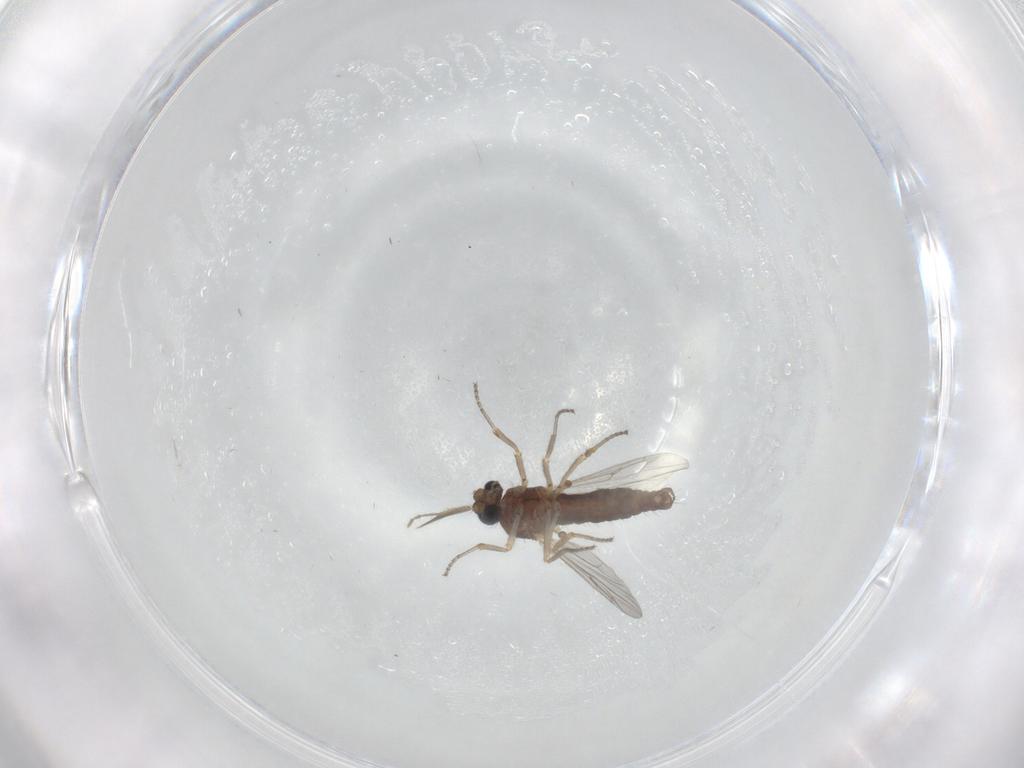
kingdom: Animalia
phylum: Arthropoda
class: Insecta
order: Diptera
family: Ceratopogonidae
